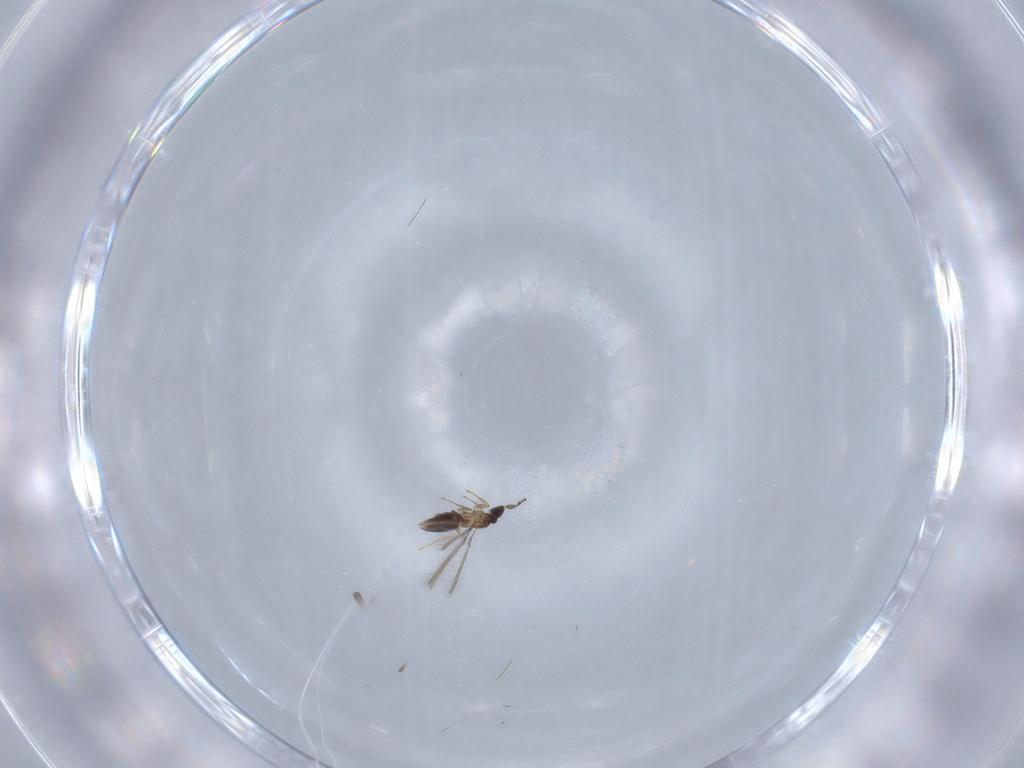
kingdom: Animalia
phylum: Arthropoda
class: Insecta
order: Hymenoptera
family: Mymaridae
